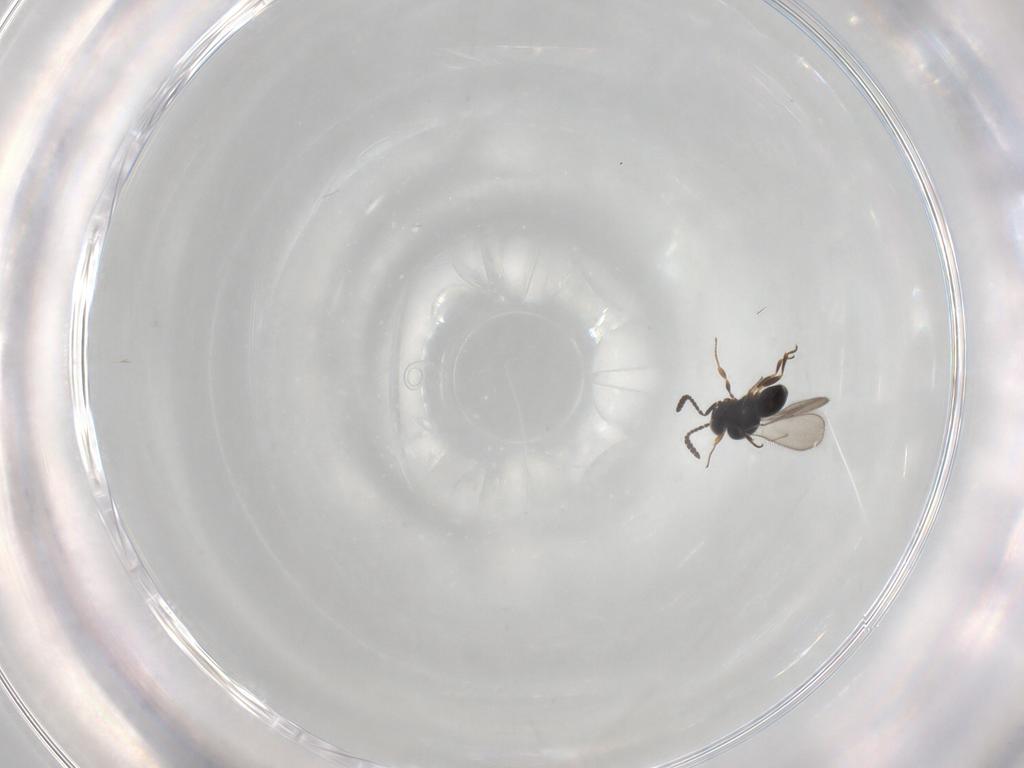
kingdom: Animalia
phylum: Arthropoda
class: Insecta
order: Hymenoptera
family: Scelionidae
